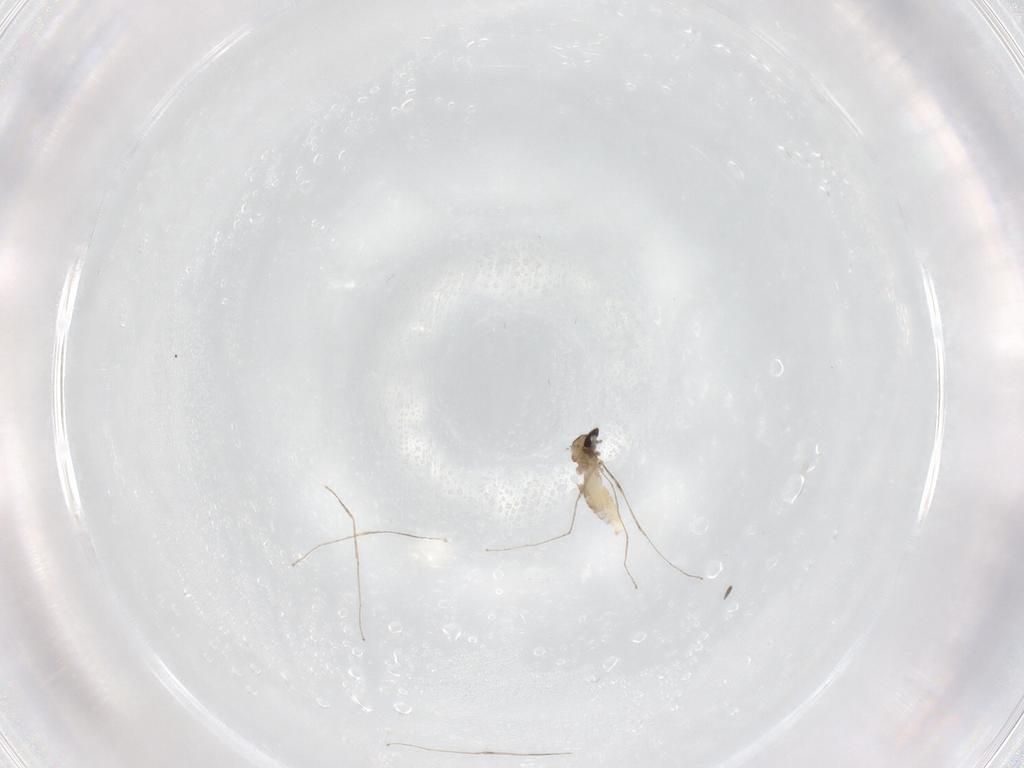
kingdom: Animalia
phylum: Arthropoda
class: Insecta
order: Diptera
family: Cecidomyiidae
